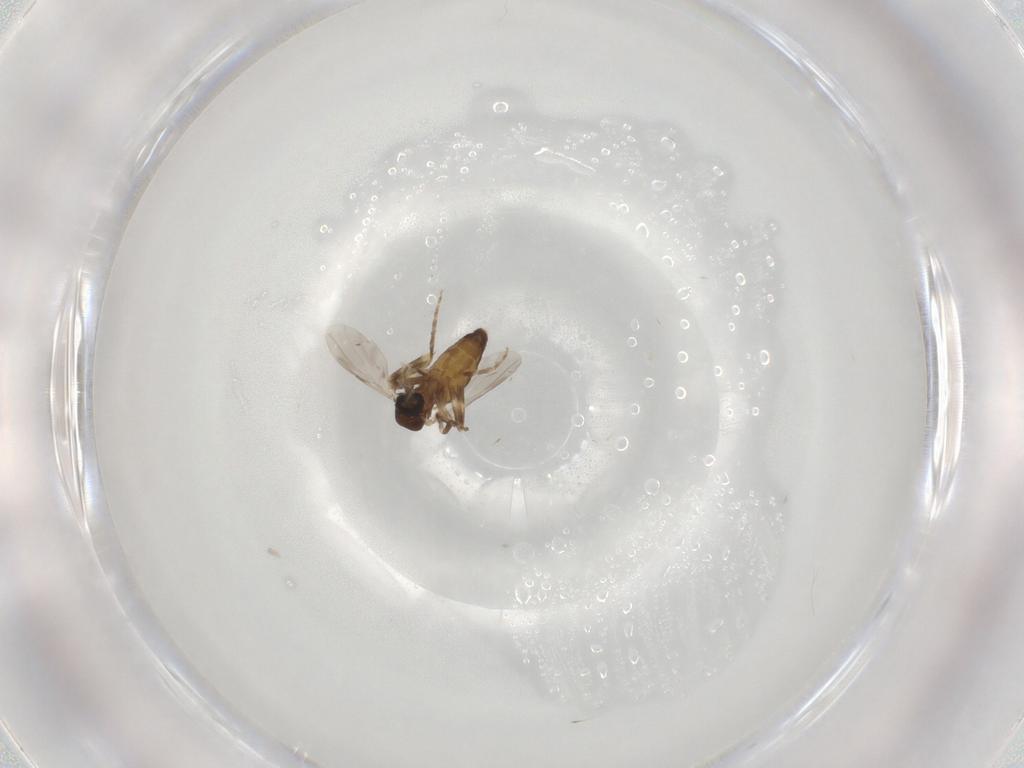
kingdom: Animalia
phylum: Arthropoda
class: Insecta
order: Diptera
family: Ceratopogonidae
